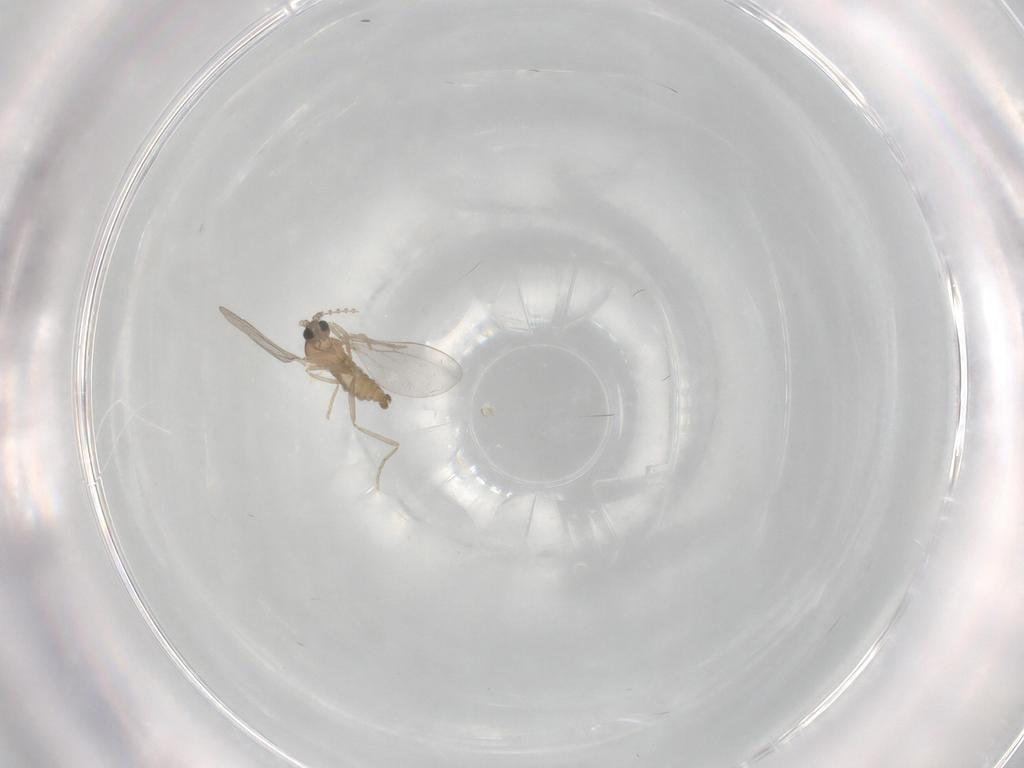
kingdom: Animalia
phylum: Arthropoda
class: Insecta
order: Diptera
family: Cecidomyiidae
